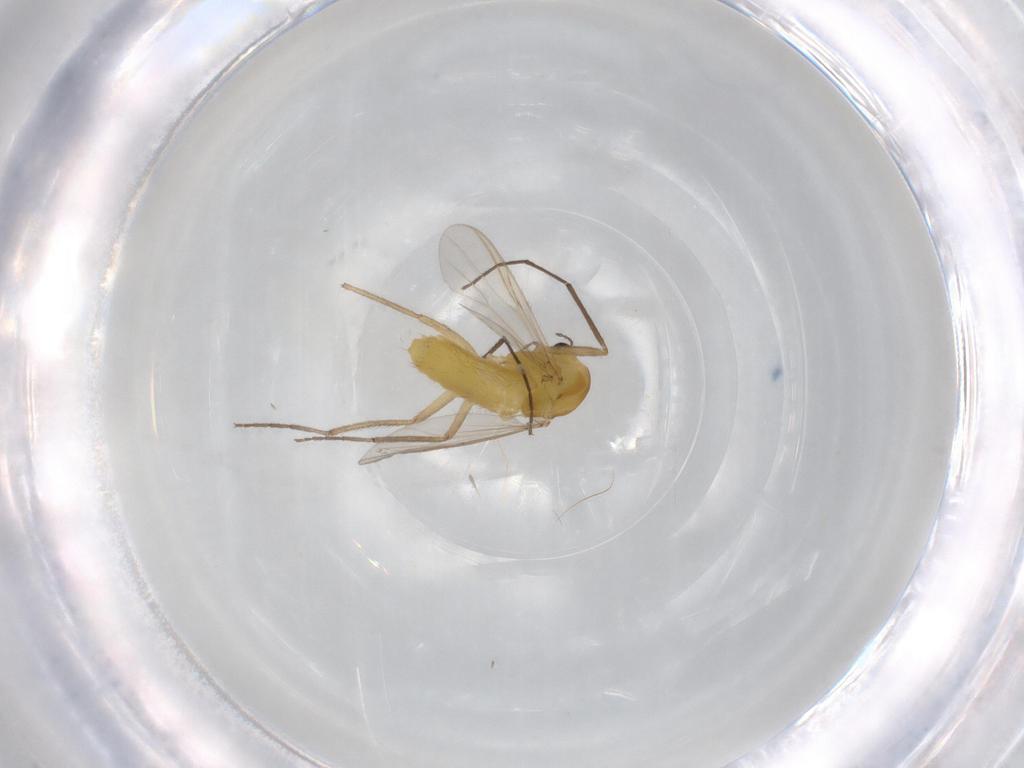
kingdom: Animalia
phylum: Arthropoda
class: Insecta
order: Diptera
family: Phoridae
